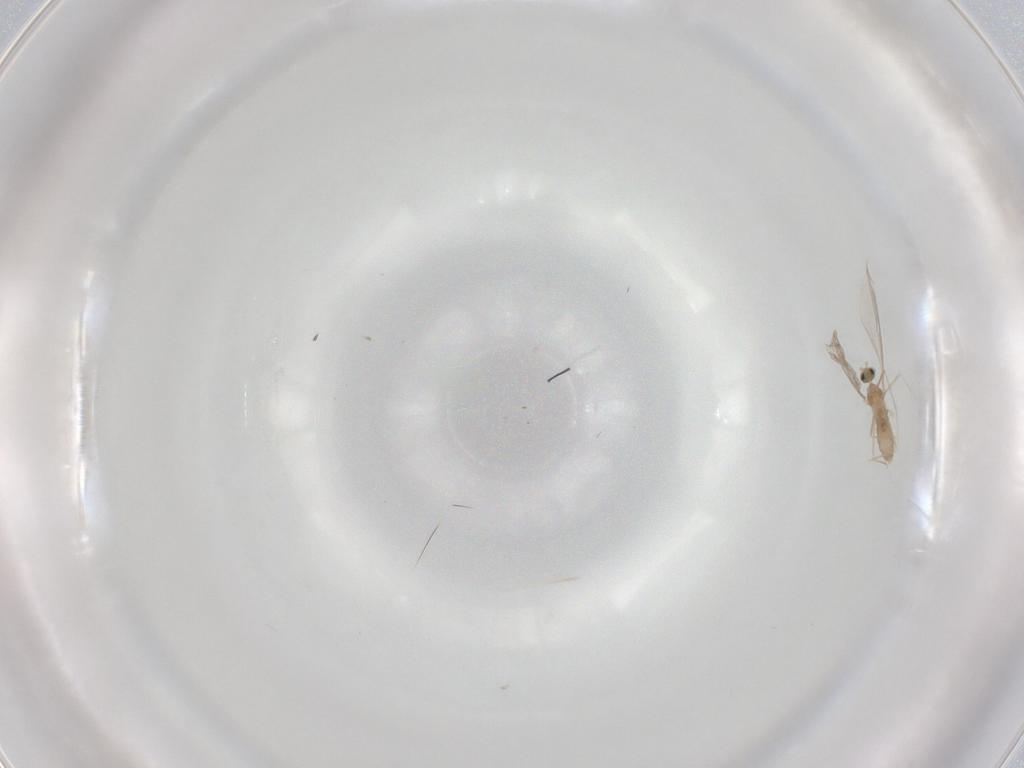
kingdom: Animalia
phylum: Arthropoda
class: Insecta
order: Diptera
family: Cecidomyiidae
